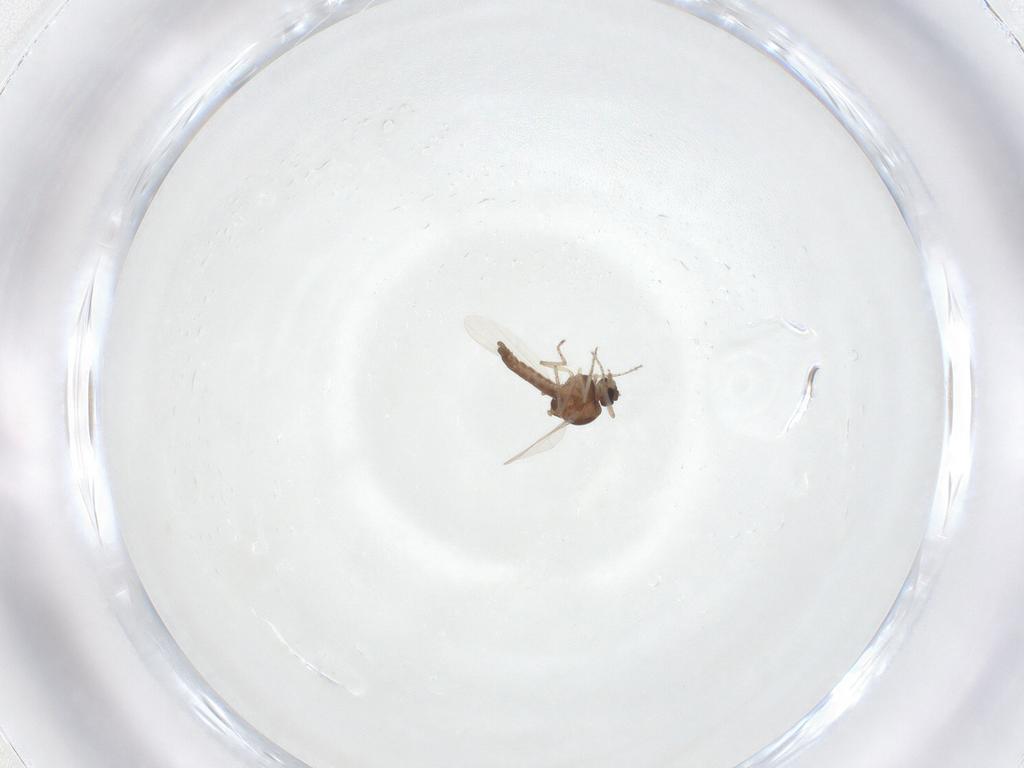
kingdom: Animalia
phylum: Arthropoda
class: Insecta
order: Diptera
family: Ceratopogonidae
